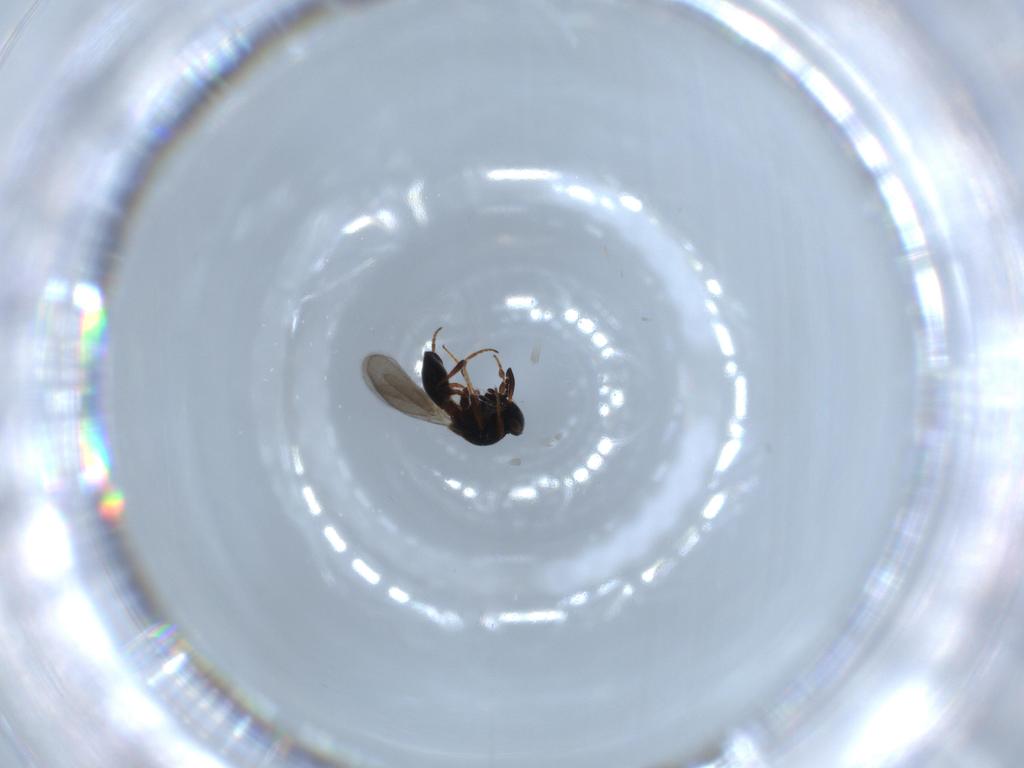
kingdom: Animalia
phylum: Arthropoda
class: Insecta
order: Hymenoptera
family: Platygastridae
